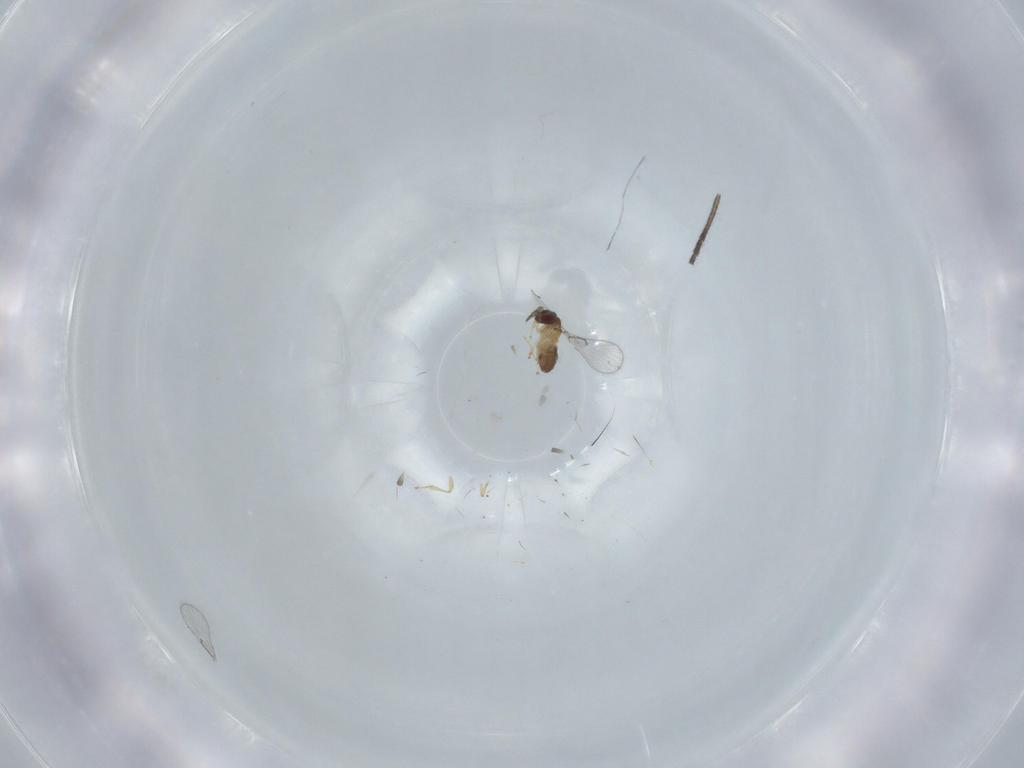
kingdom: Animalia
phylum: Arthropoda
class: Insecta
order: Hymenoptera
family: Trichogrammatidae
